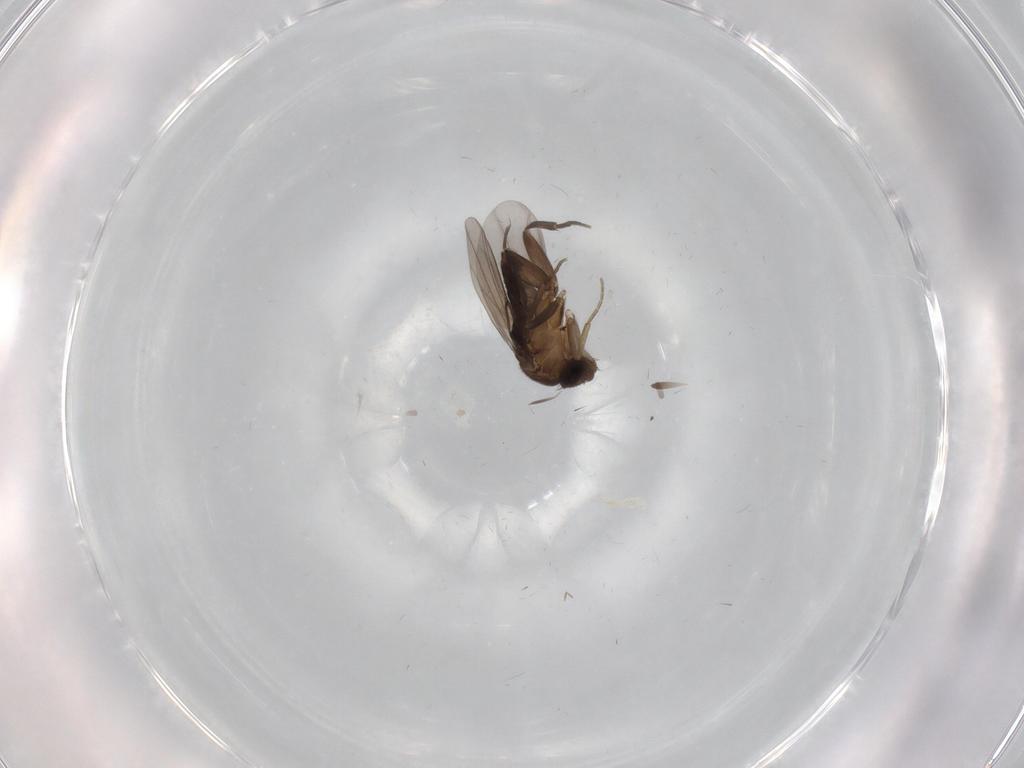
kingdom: Animalia
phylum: Arthropoda
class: Insecta
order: Diptera
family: Phoridae
